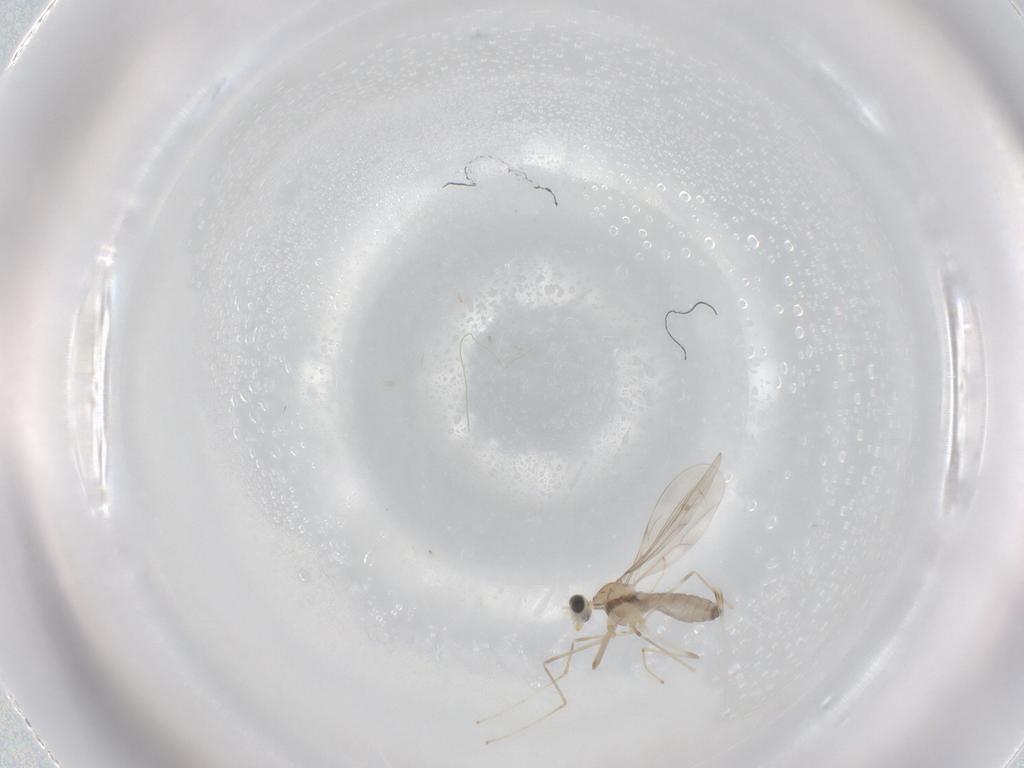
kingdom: Animalia
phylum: Arthropoda
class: Insecta
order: Diptera
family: Cecidomyiidae
